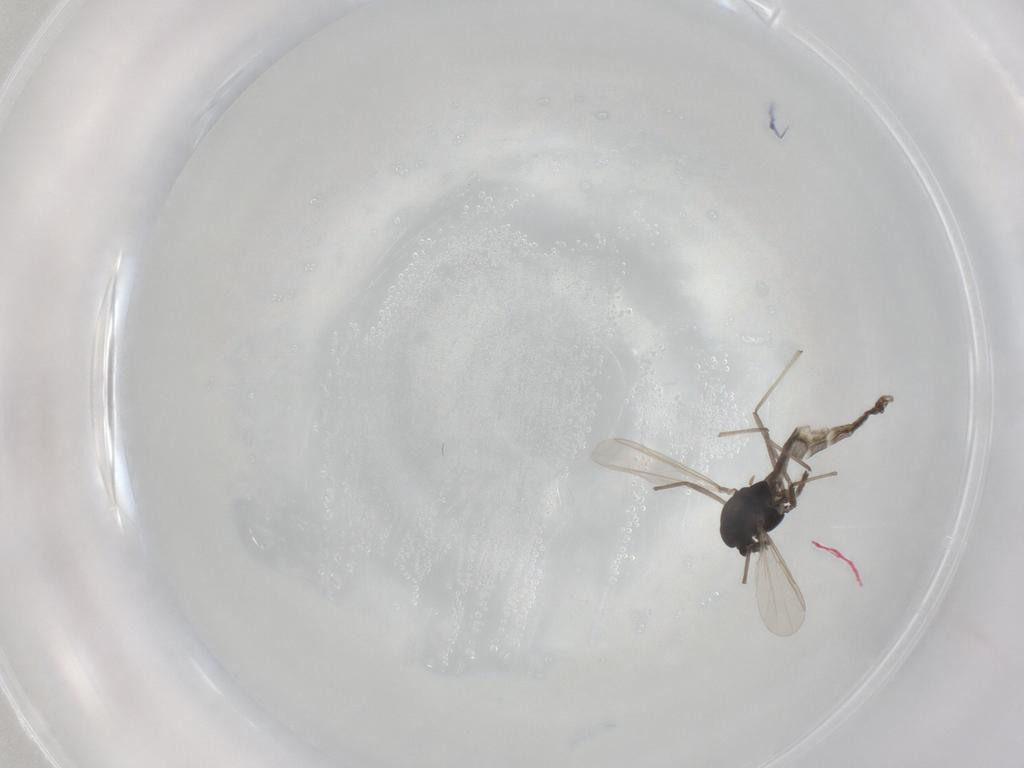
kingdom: Animalia
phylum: Arthropoda
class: Insecta
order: Diptera
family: Chironomidae
